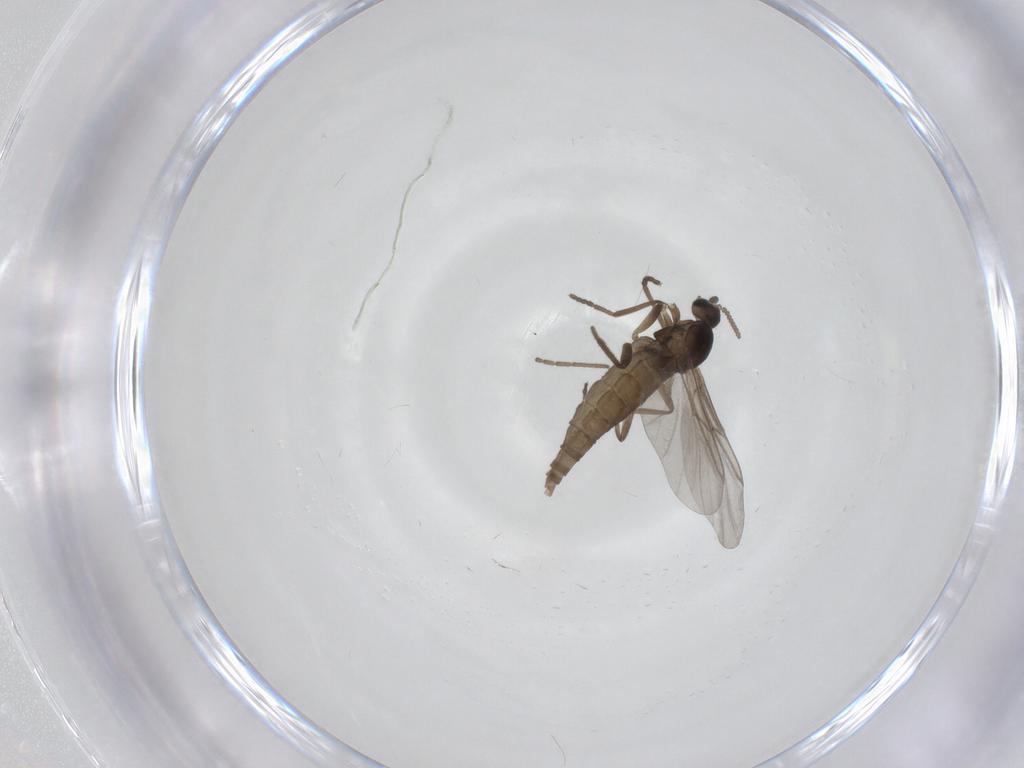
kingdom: Animalia
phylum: Arthropoda
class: Insecta
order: Diptera
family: Cecidomyiidae
